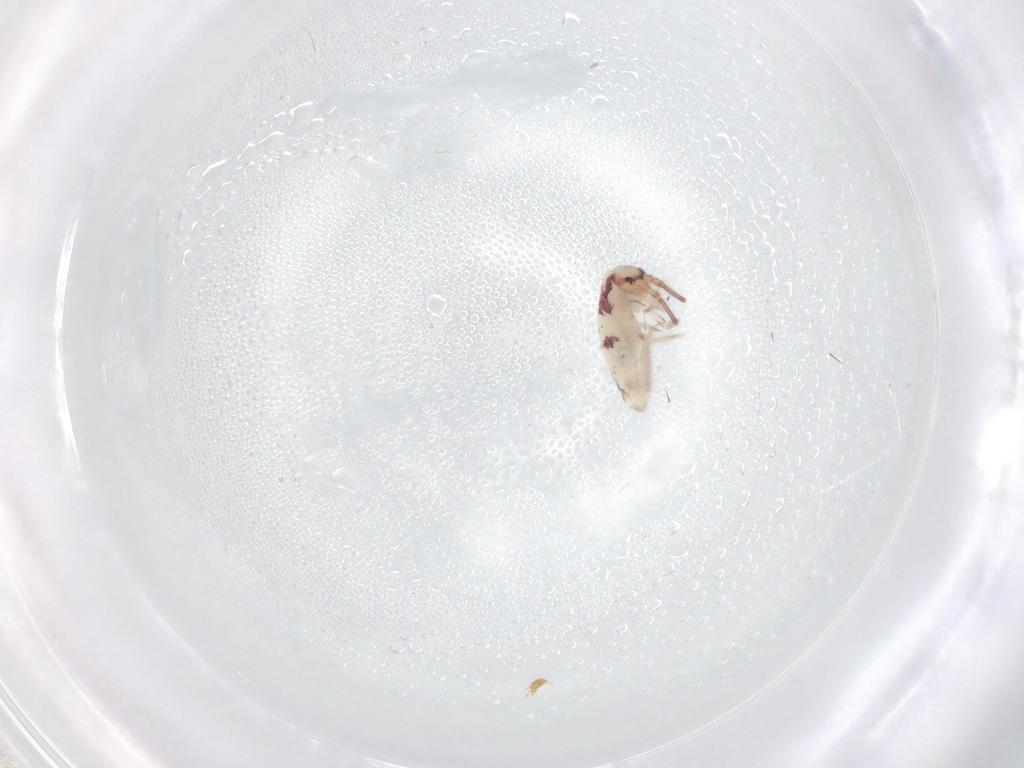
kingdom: Animalia
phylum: Arthropoda
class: Collembola
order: Entomobryomorpha
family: Entomobryidae
